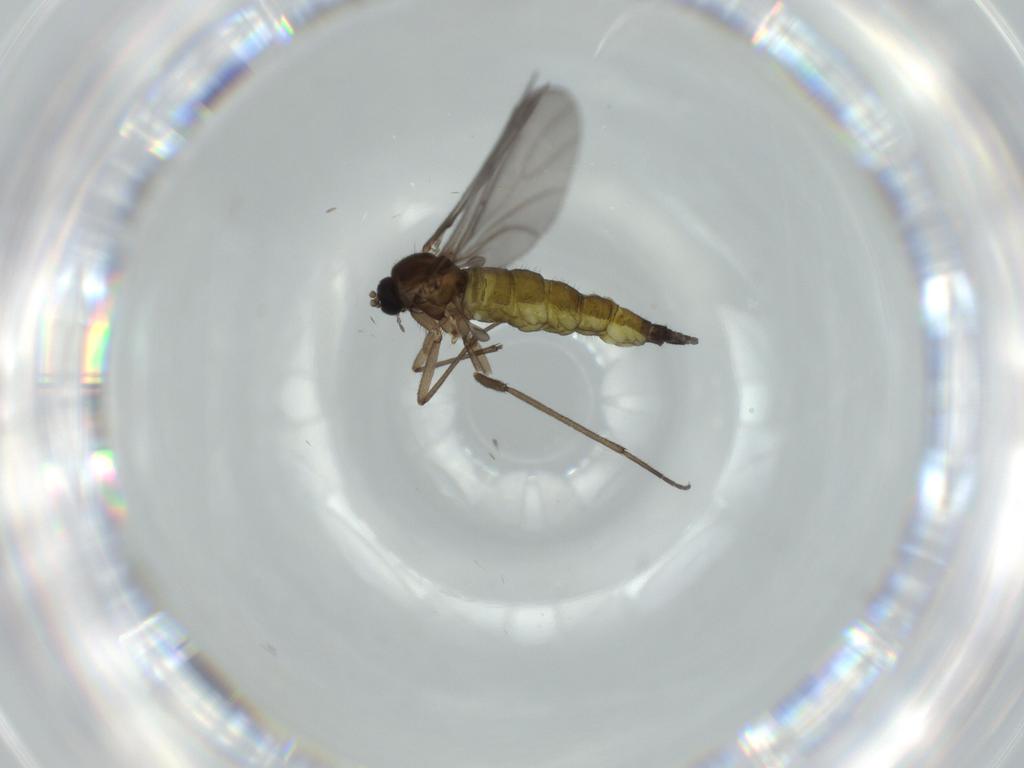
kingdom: Animalia
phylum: Arthropoda
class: Insecta
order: Diptera
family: Sciaridae
